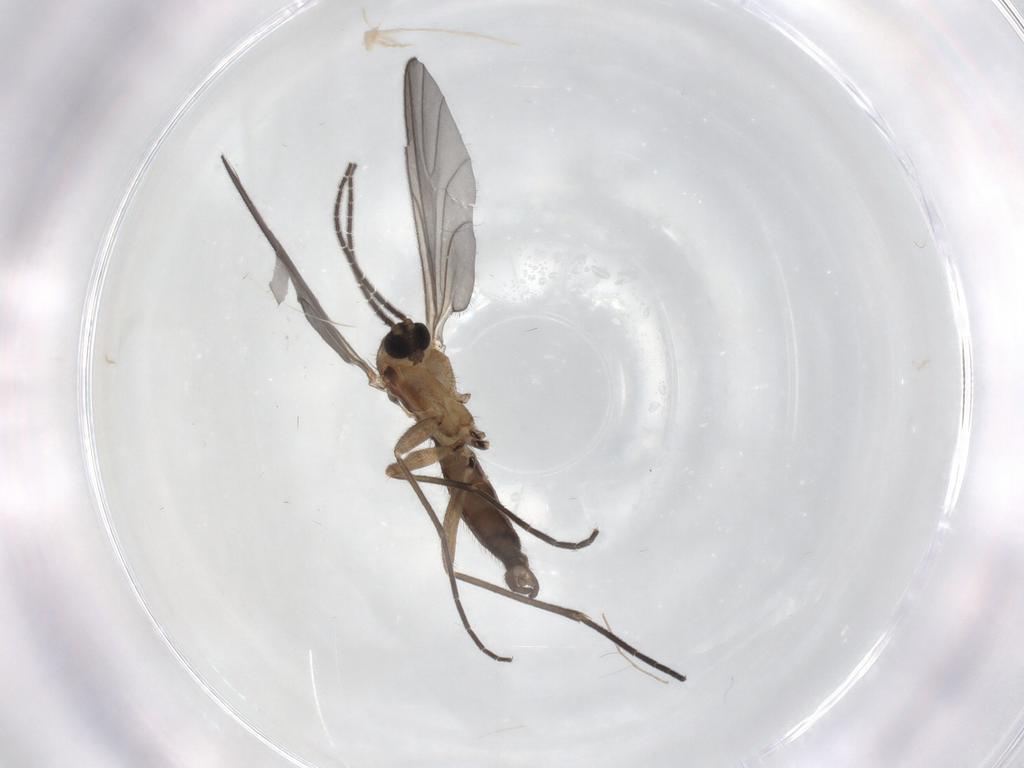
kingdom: Animalia
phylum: Arthropoda
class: Insecta
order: Diptera
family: Sciaridae
